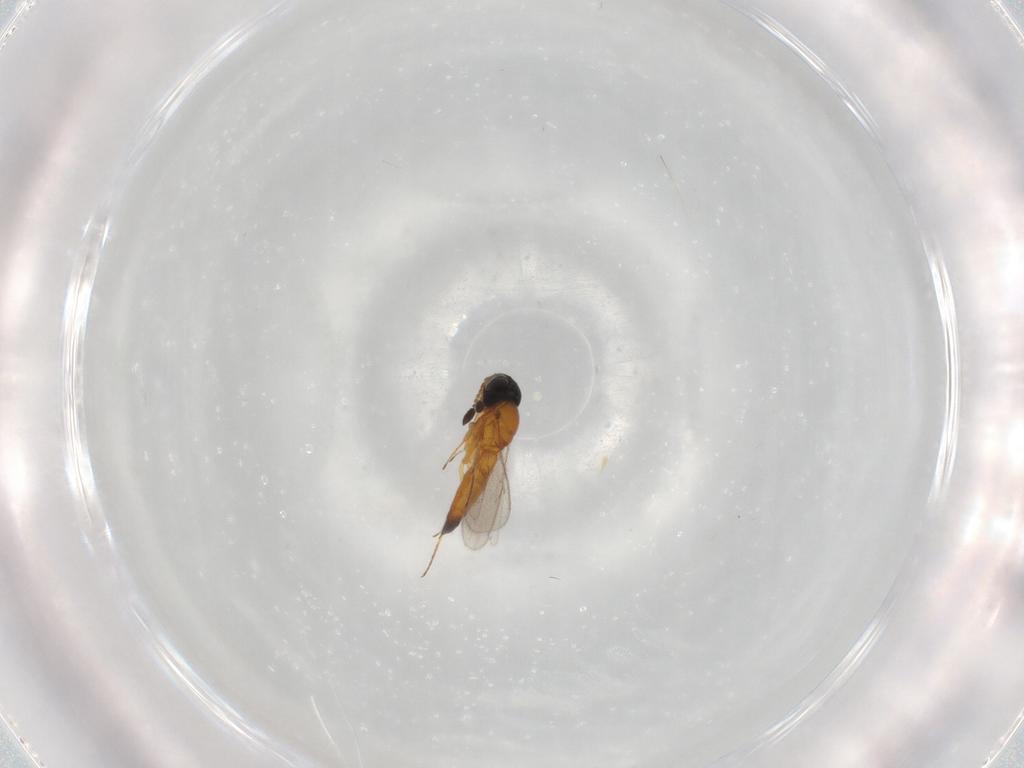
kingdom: Animalia
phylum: Arthropoda
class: Insecta
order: Hymenoptera
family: Scelionidae
